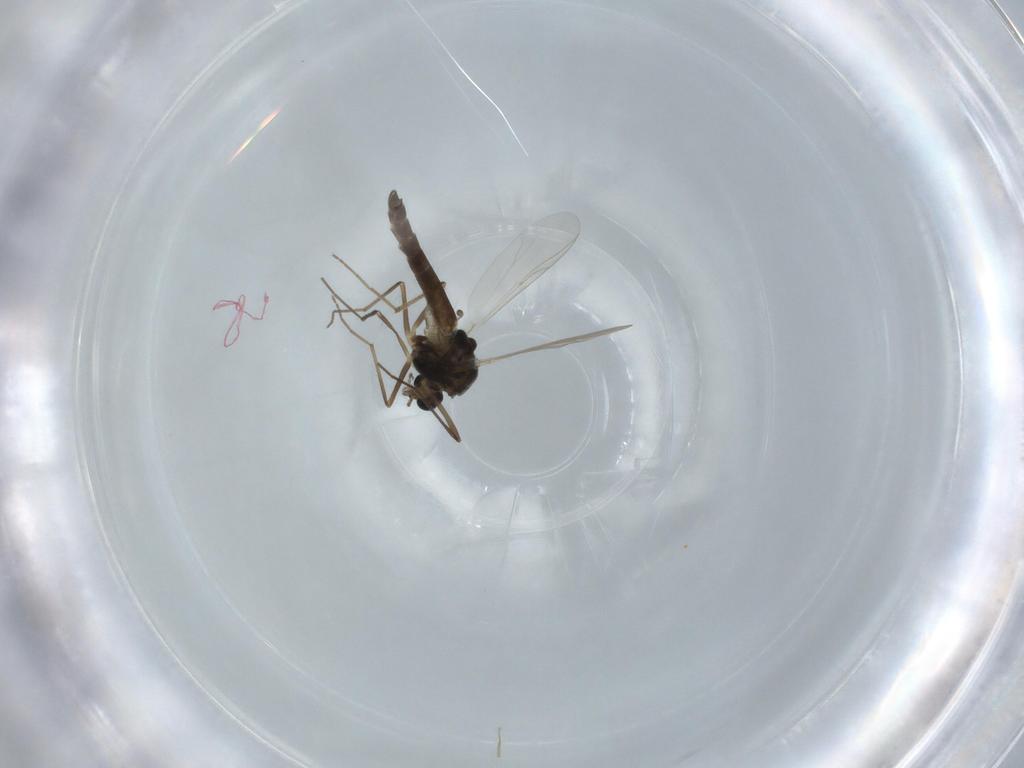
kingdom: Animalia
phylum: Arthropoda
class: Insecta
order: Diptera
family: Chironomidae
